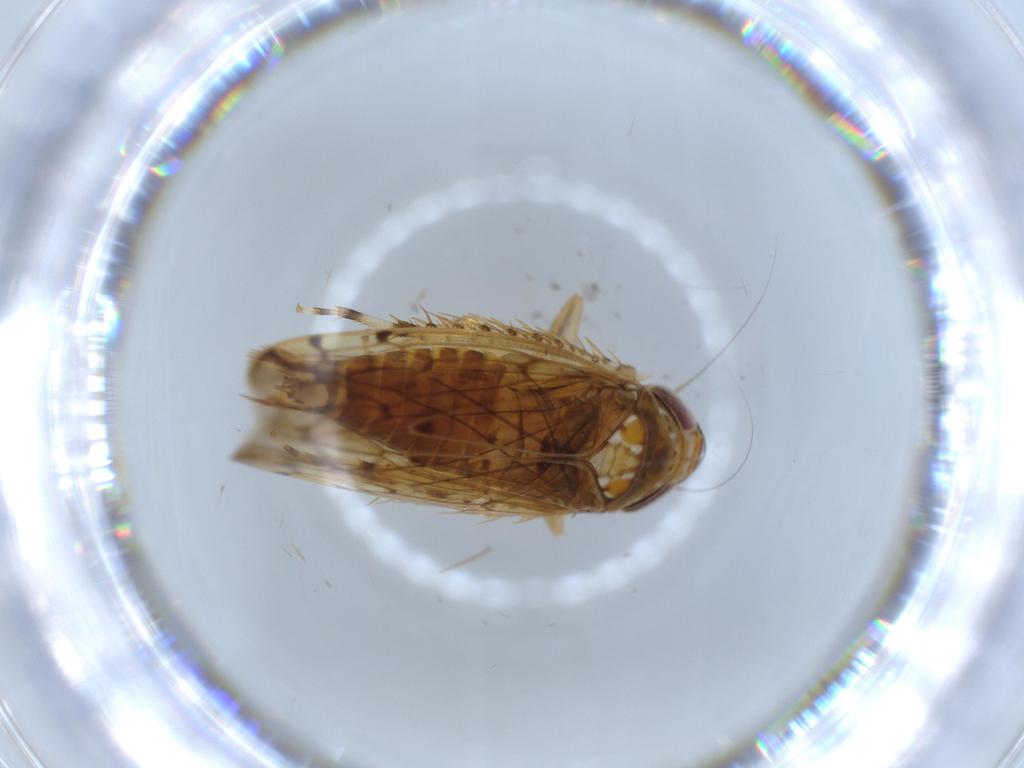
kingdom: Animalia
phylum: Arthropoda
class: Insecta
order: Hemiptera
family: Cicadellidae
